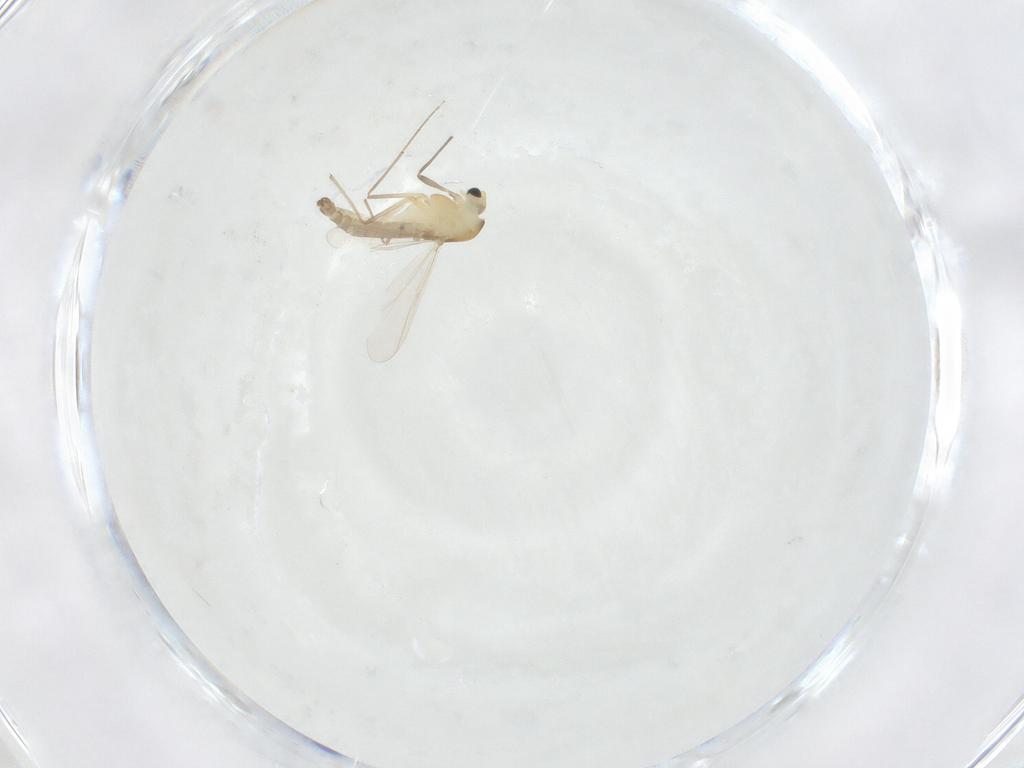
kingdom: Animalia
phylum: Arthropoda
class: Insecta
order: Diptera
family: Chironomidae
